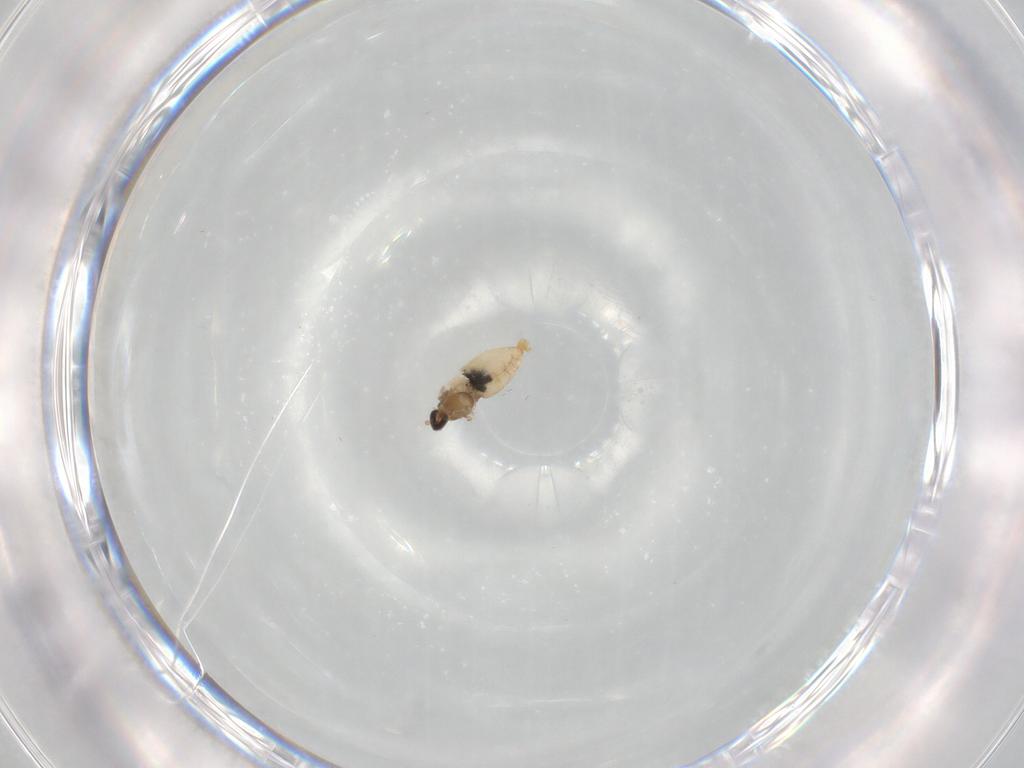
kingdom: Animalia
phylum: Arthropoda
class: Insecta
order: Diptera
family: Cecidomyiidae
